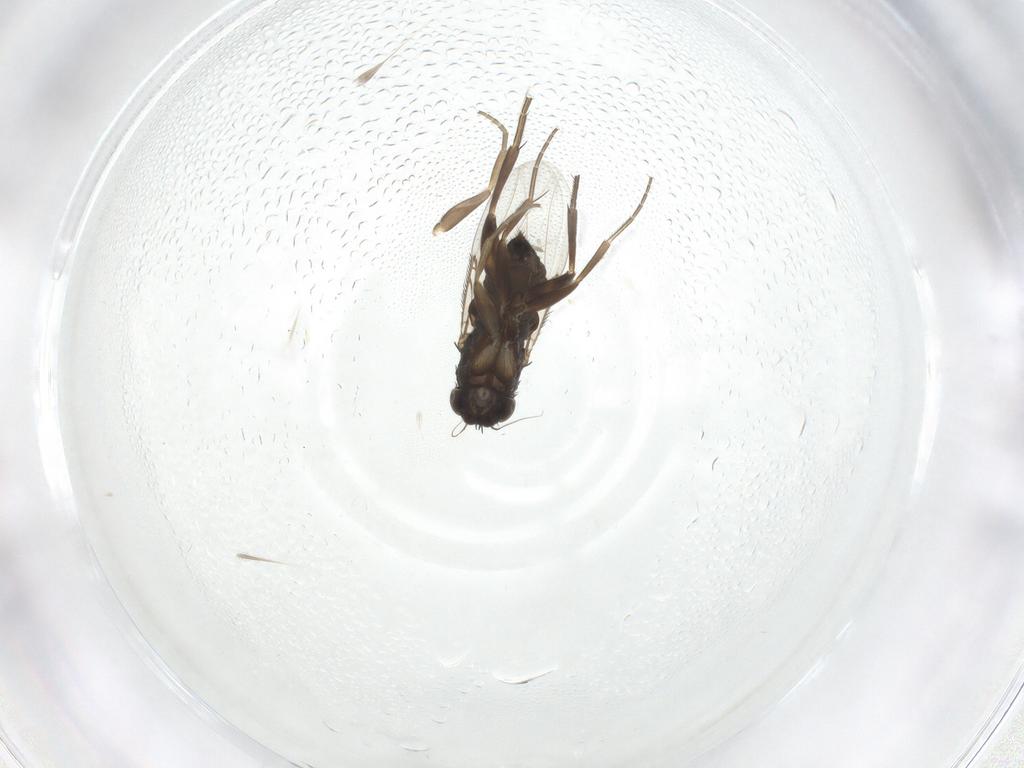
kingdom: Animalia
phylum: Arthropoda
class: Insecta
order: Diptera
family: Phoridae
